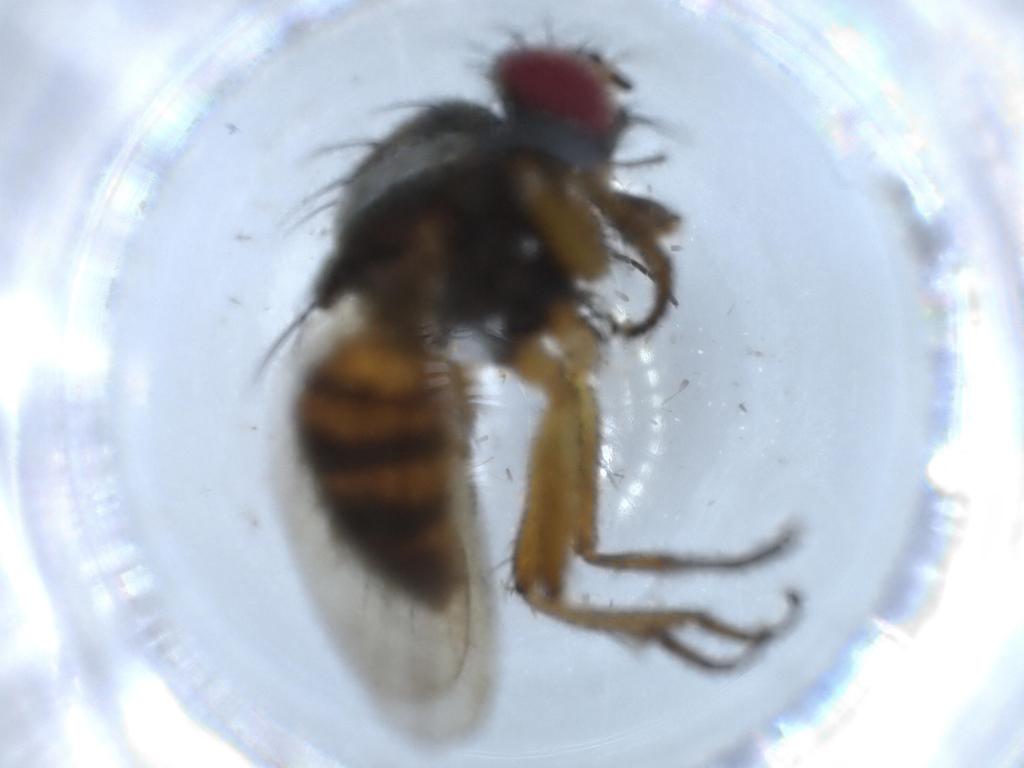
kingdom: Animalia
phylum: Arthropoda
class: Insecta
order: Diptera
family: Muscidae
